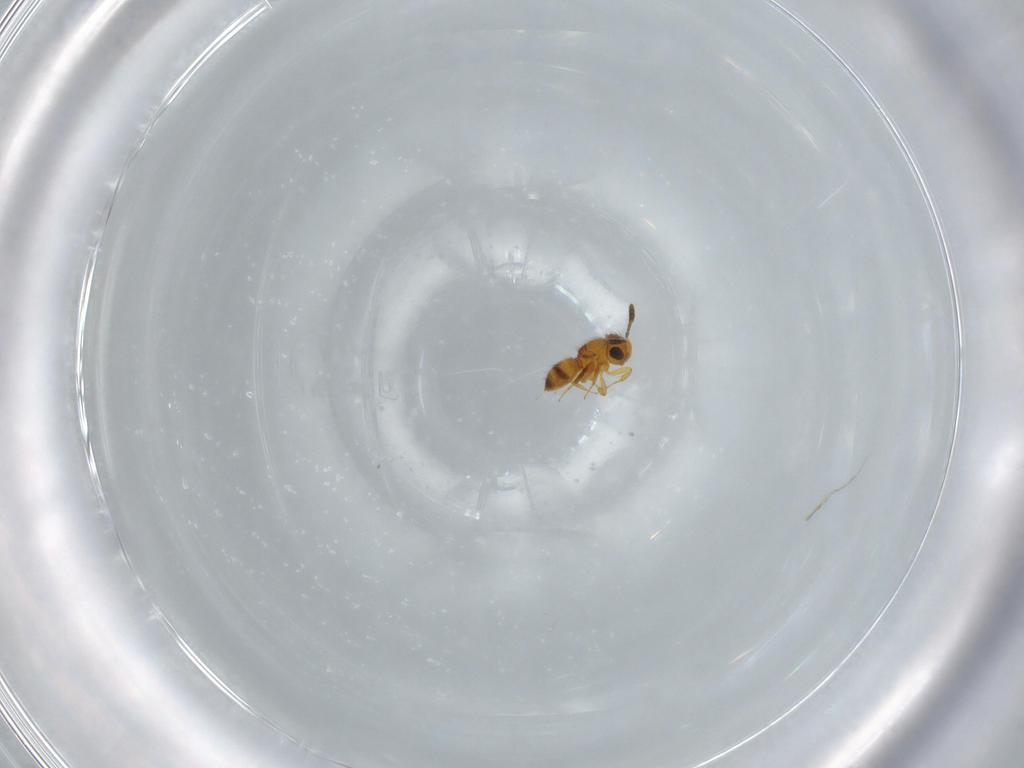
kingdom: Animalia
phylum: Arthropoda
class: Insecta
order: Hymenoptera
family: Scelionidae
